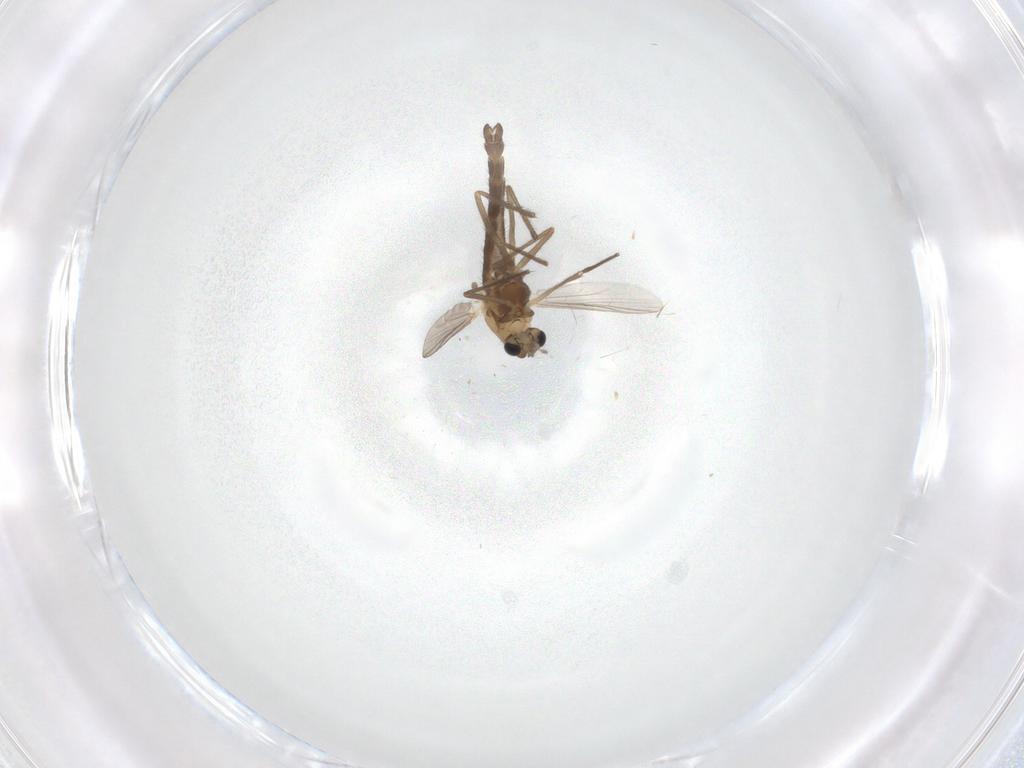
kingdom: Animalia
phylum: Arthropoda
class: Insecta
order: Diptera
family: Chironomidae
